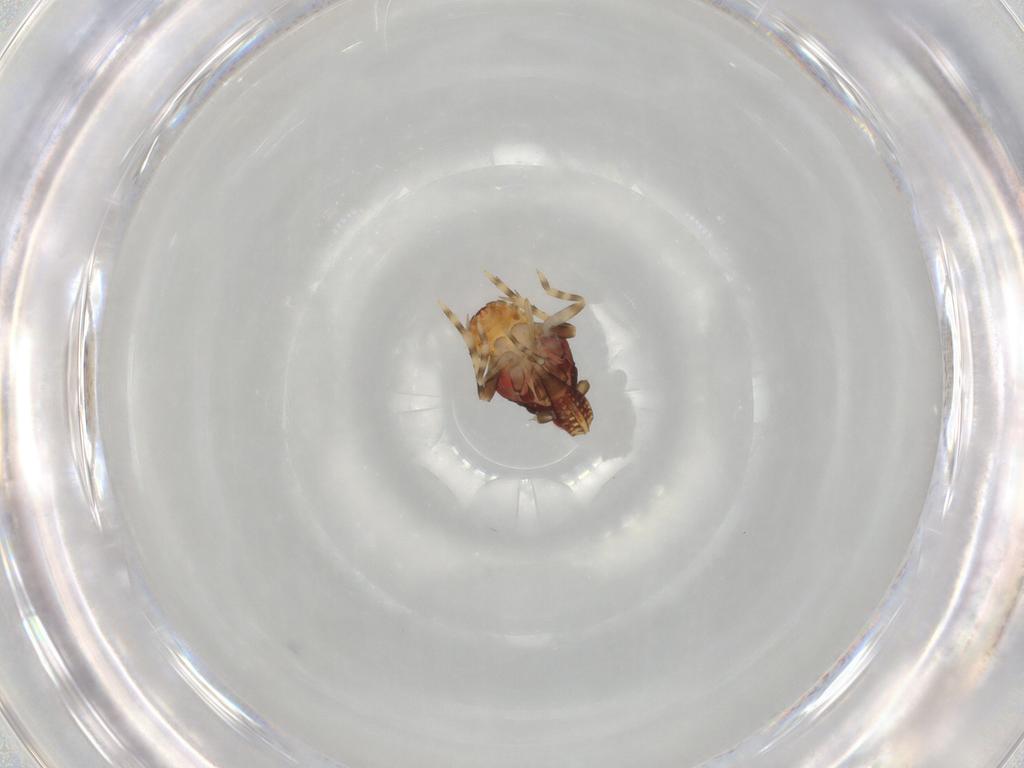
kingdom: Animalia
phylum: Arthropoda
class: Insecta
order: Hemiptera
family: Delphacidae
